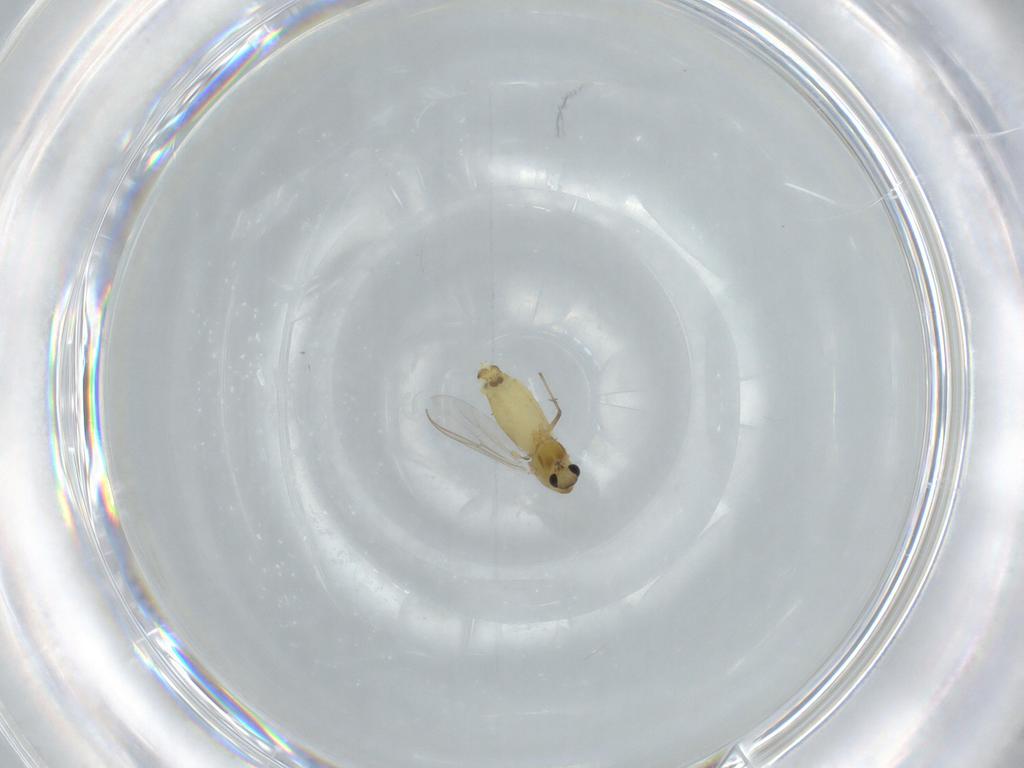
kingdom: Animalia
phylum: Arthropoda
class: Insecta
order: Diptera
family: Chironomidae
